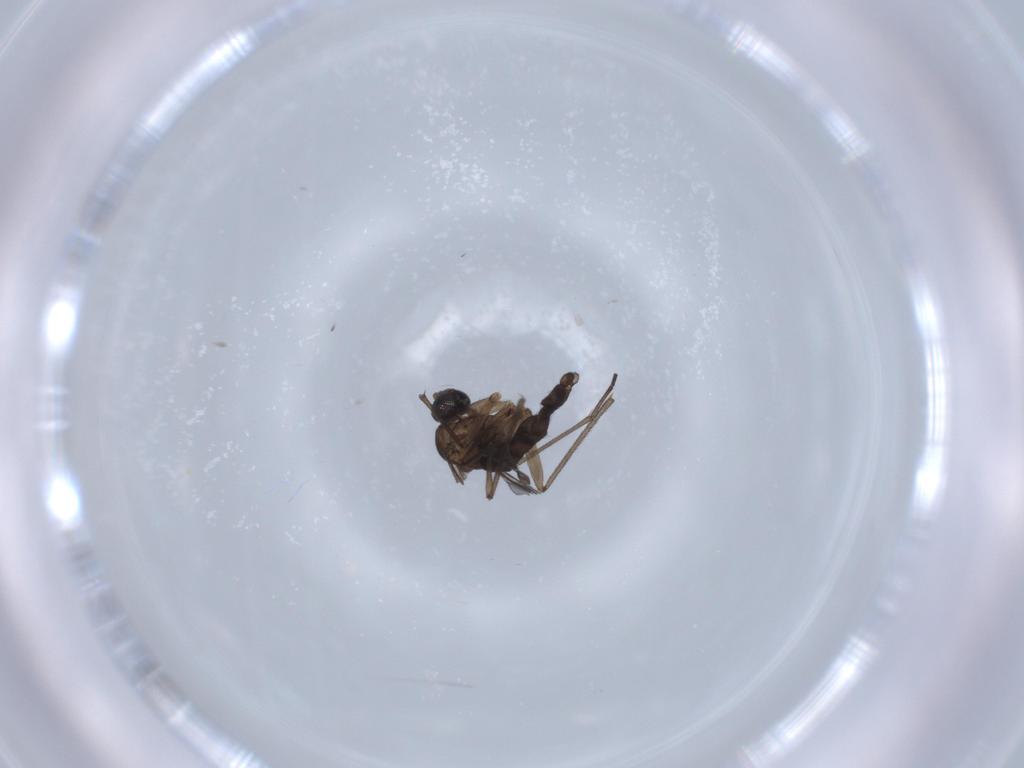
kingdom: Animalia
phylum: Arthropoda
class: Insecta
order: Diptera
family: Sciaridae
